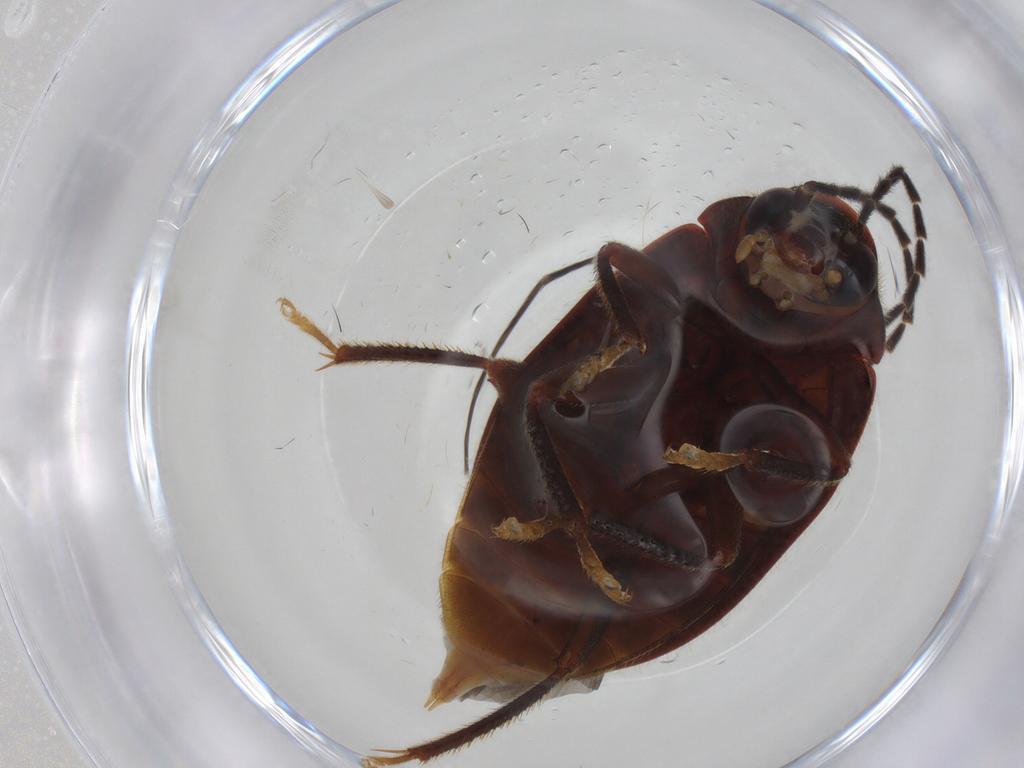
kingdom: Animalia
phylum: Arthropoda
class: Insecta
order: Coleoptera
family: Ptilodactylidae
